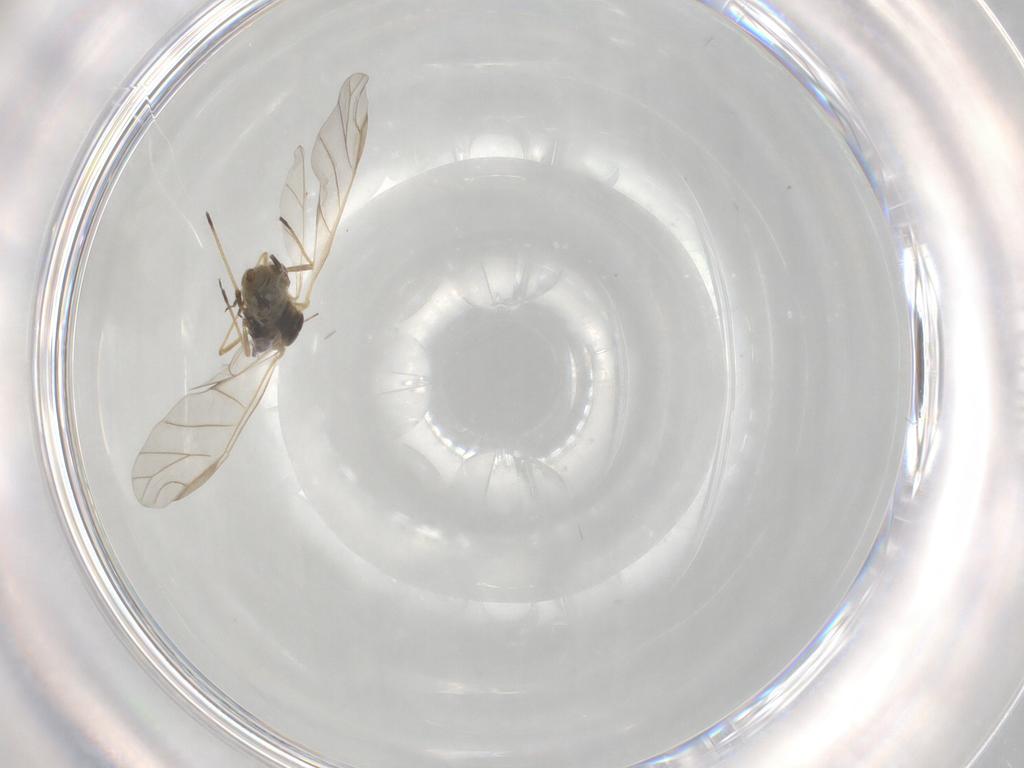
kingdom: Animalia
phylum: Arthropoda
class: Insecta
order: Hemiptera
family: Aphididae
